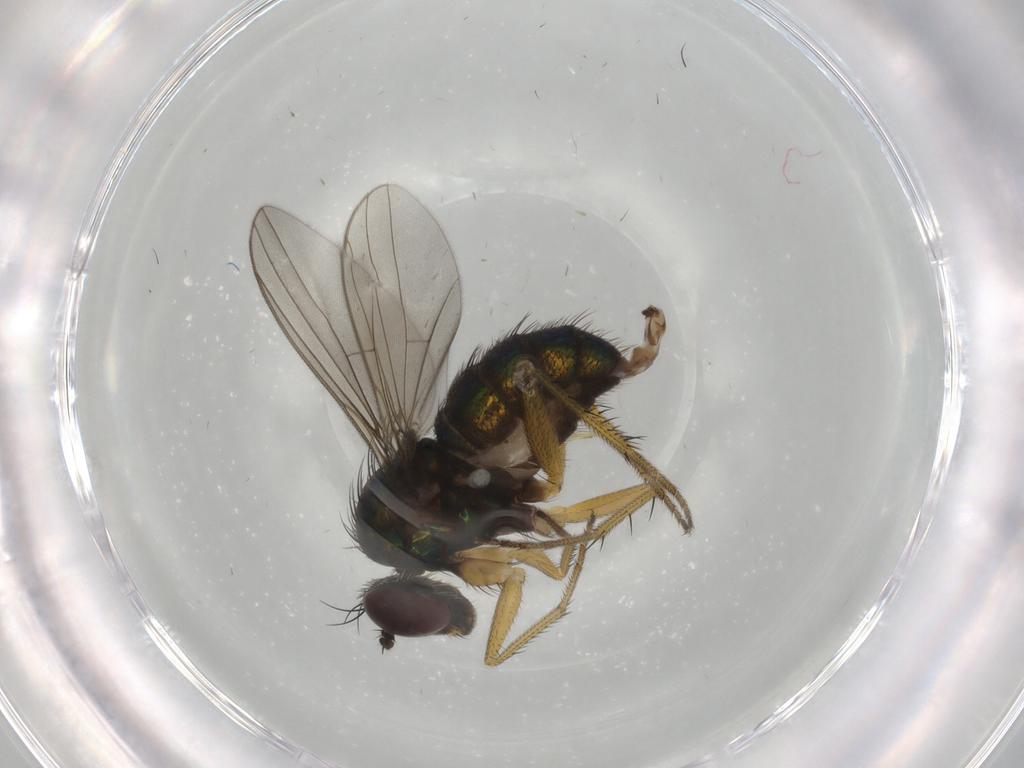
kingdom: Animalia
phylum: Arthropoda
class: Insecta
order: Diptera
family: Dolichopodidae
